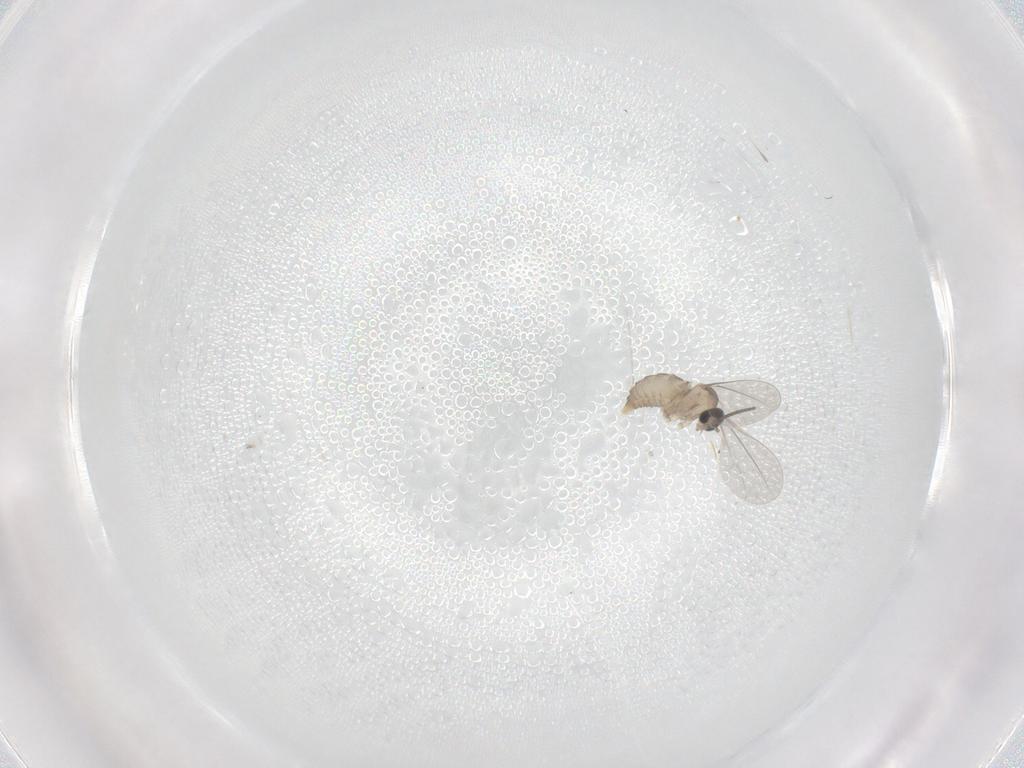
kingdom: Animalia
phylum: Arthropoda
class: Insecta
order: Diptera
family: Cecidomyiidae
